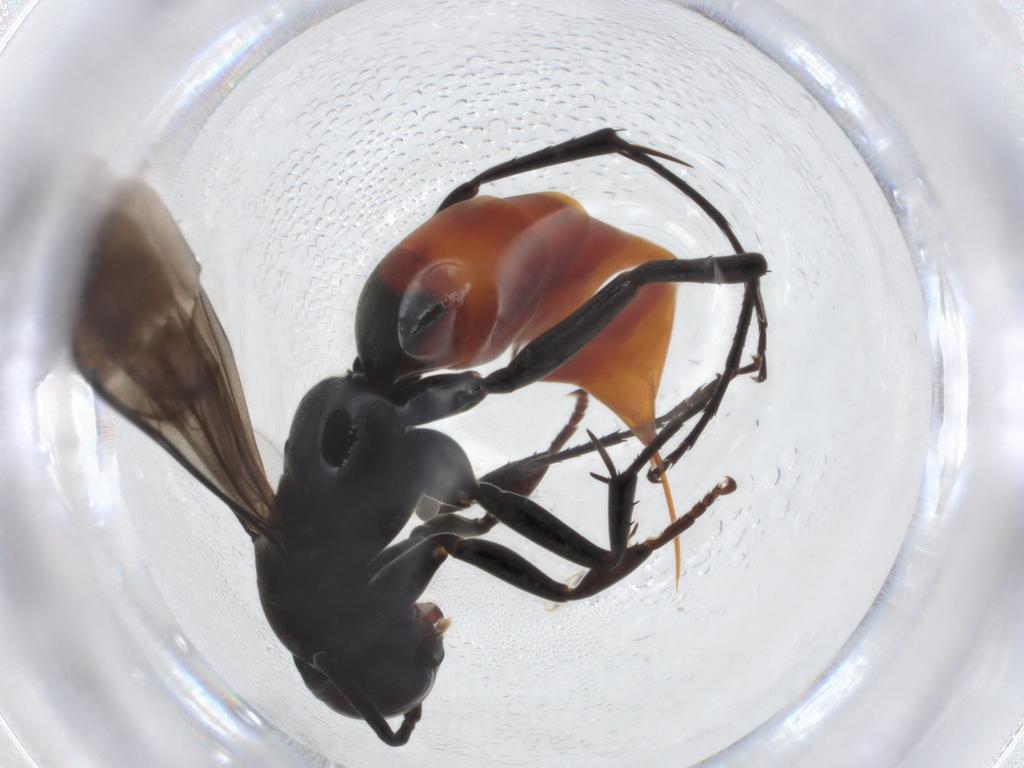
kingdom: Animalia
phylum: Arthropoda
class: Insecta
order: Hymenoptera
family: Pompilidae
